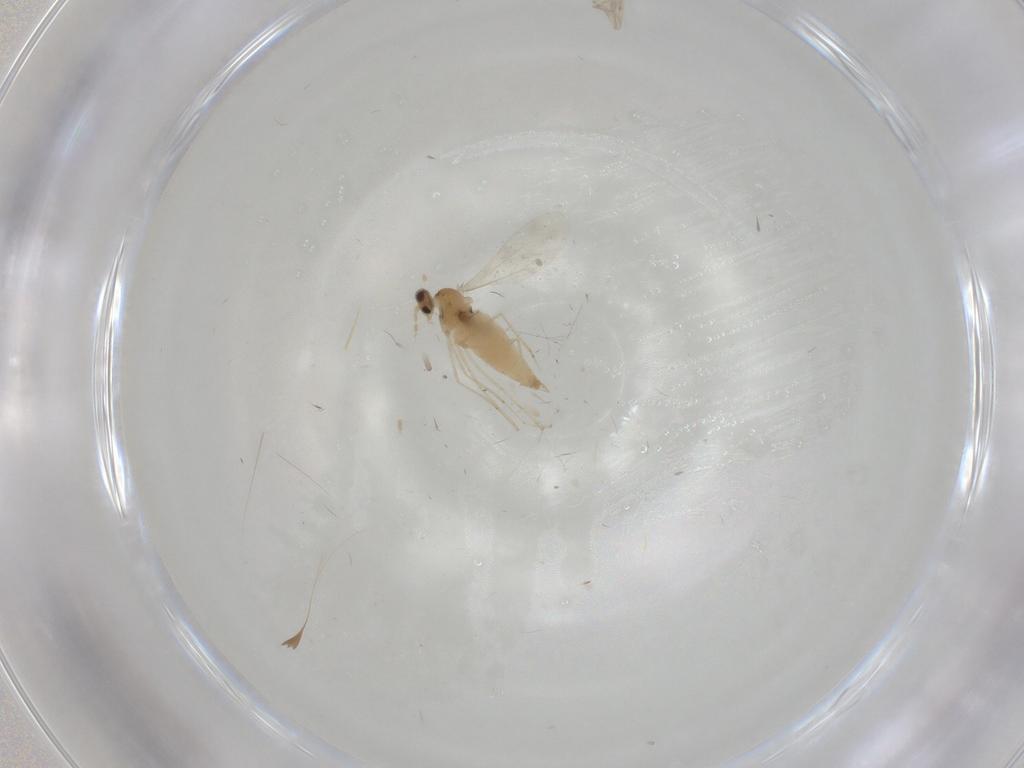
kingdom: Animalia
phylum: Arthropoda
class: Insecta
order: Diptera
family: Cecidomyiidae
